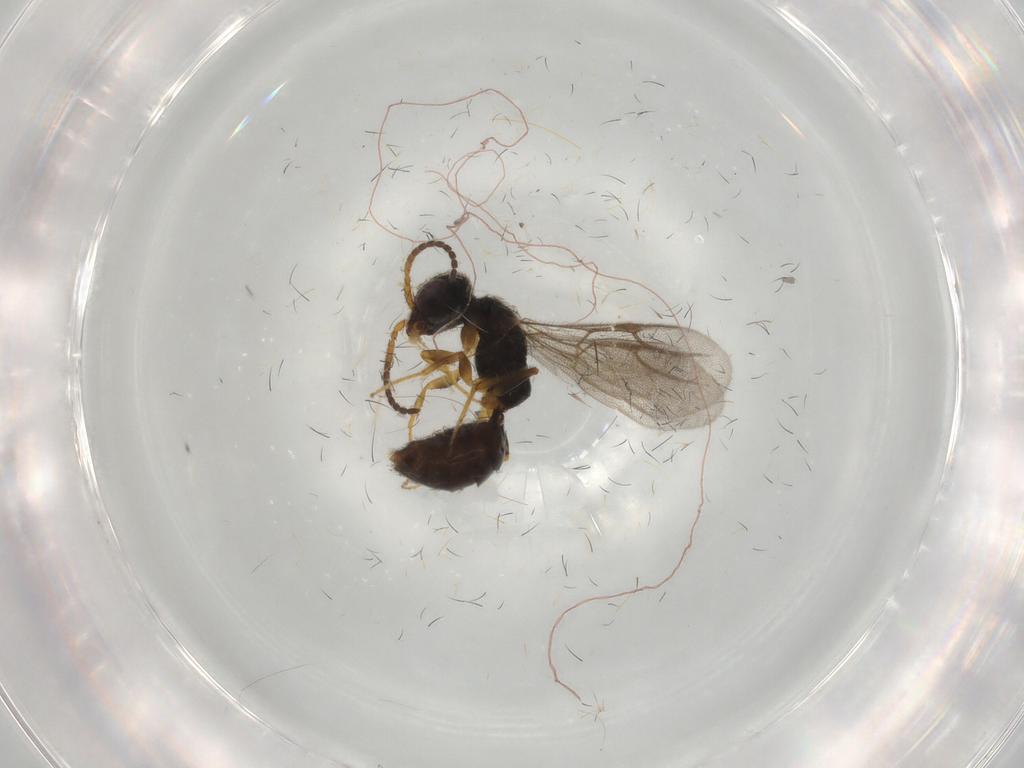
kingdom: Animalia
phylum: Arthropoda
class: Insecta
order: Hymenoptera
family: Bethylidae
